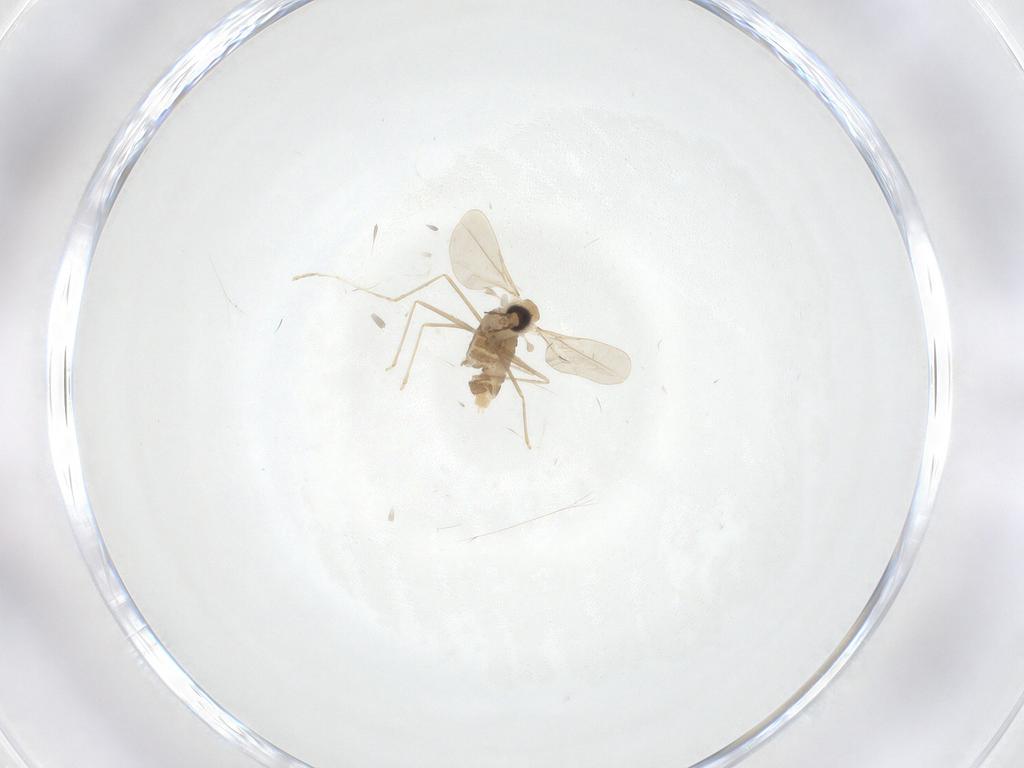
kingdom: Animalia
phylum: Arthropoda
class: Insecta
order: Diptera
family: Cecidomyiidae
